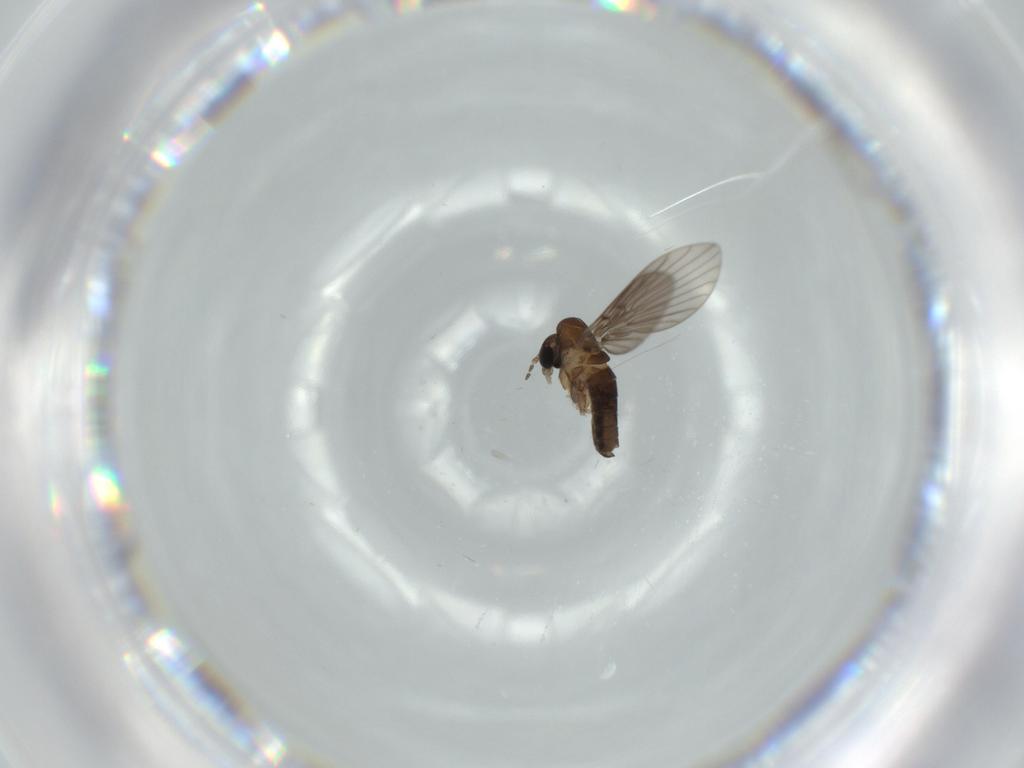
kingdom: Animalia
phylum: Arthropoda
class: Insecta
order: Diptera
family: Psychodidae
